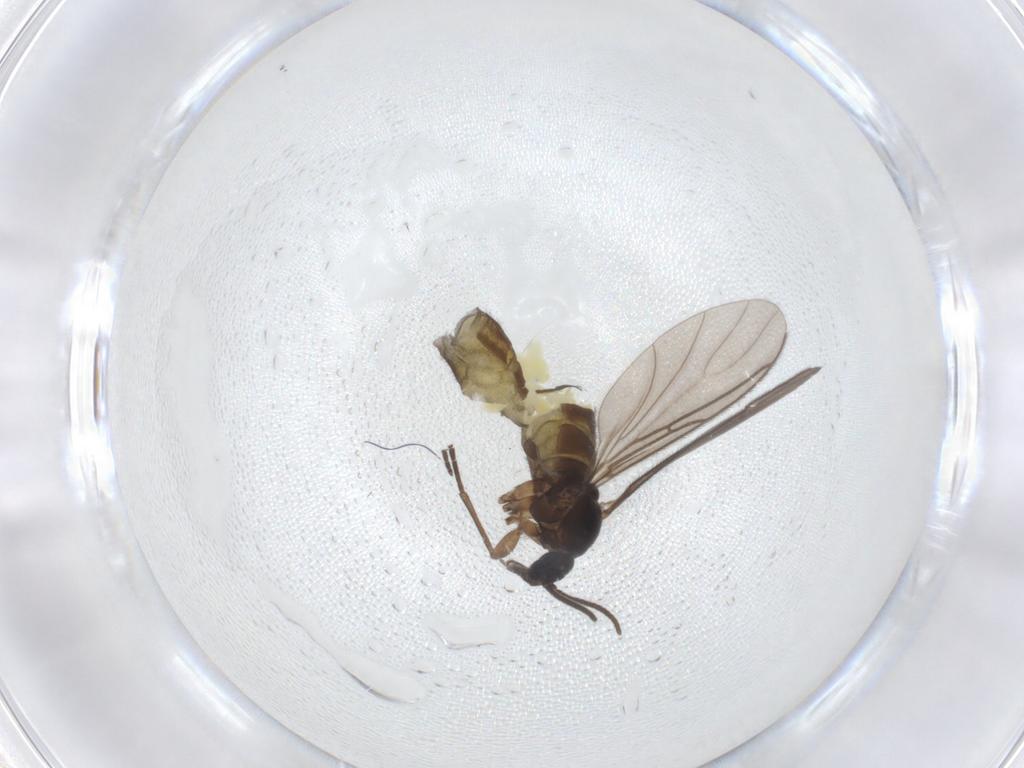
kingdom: Animalia
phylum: Arthropoda
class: Insecta
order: Diptera
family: Sciaridae
